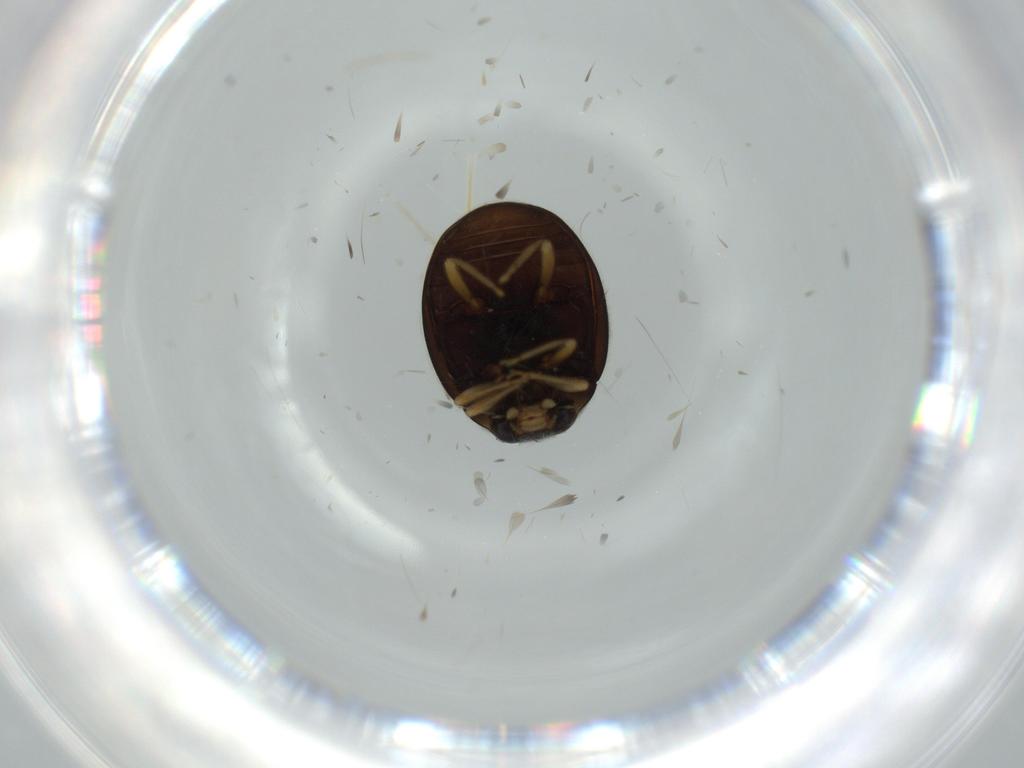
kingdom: Animalia
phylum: Arthropoda
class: Insecta
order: Coleoptera
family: Coccinellidae
